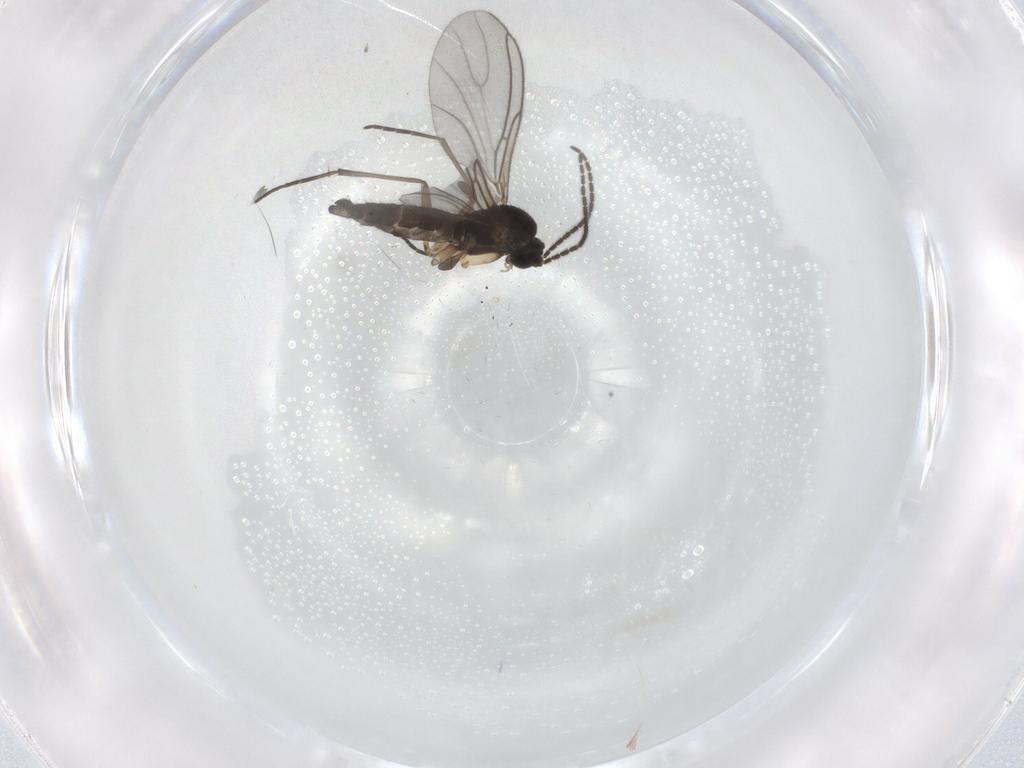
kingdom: Animalia
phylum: Arthropoda
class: Insecta
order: Diptera
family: Sciaridae
